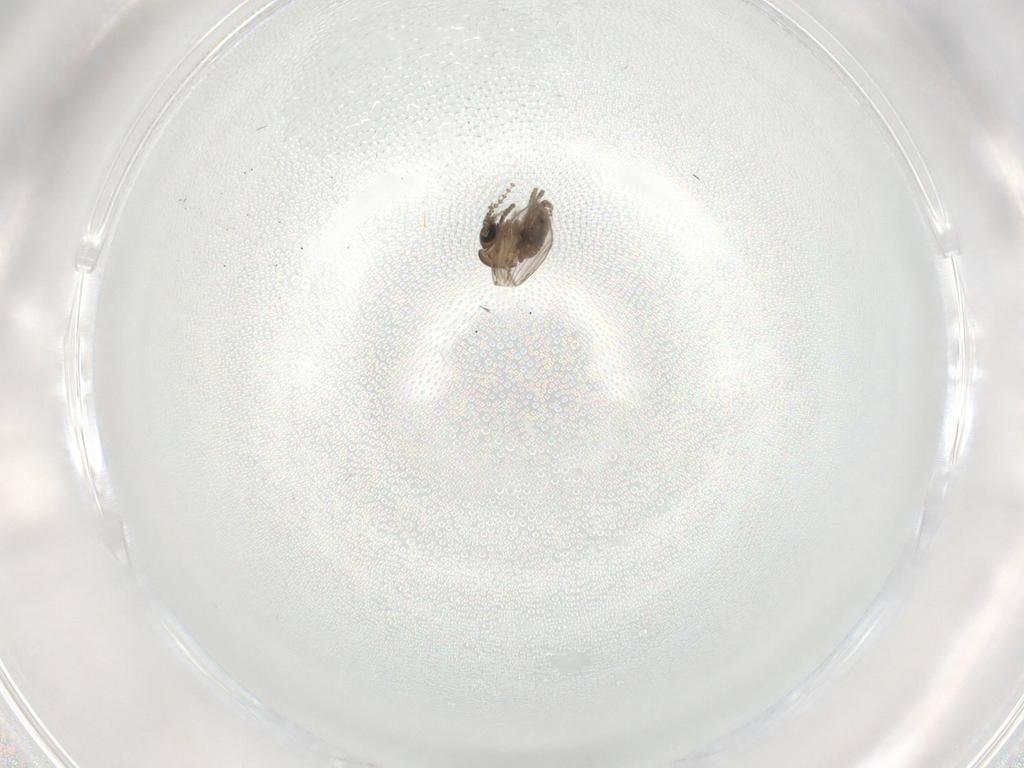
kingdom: Animalia
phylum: Arthropoda
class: Insecta
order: Diptera
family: Psychodidae
